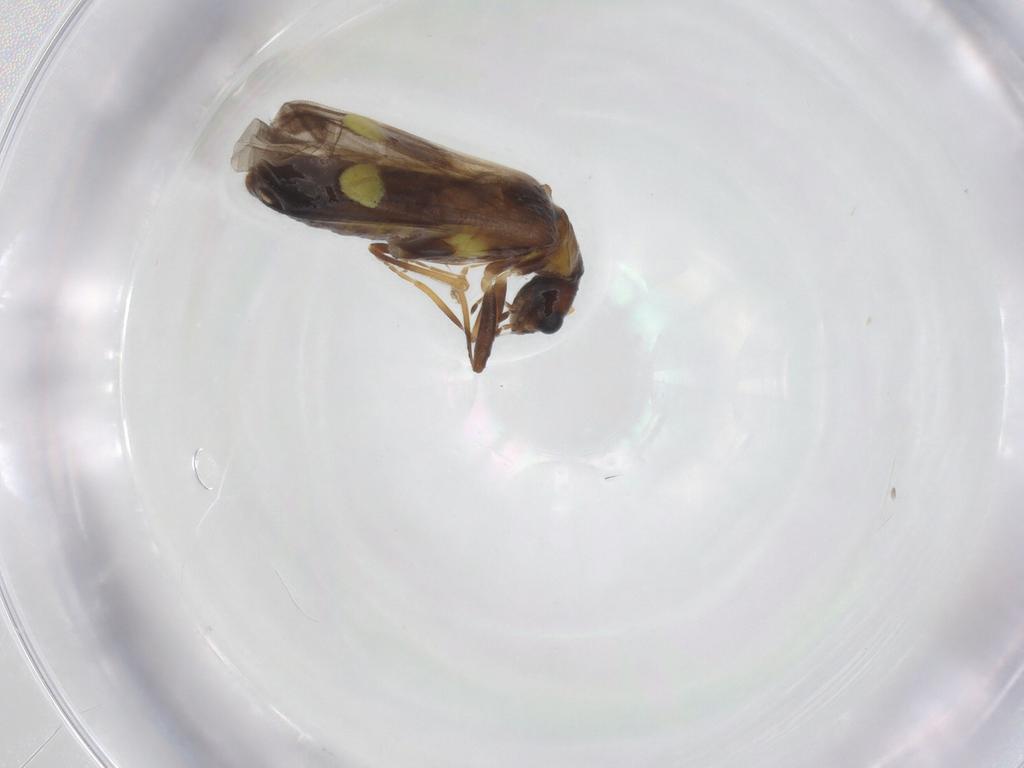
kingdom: Animalia
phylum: Arthropoda
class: Insecta
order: Coleoptera
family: Cantharidae
